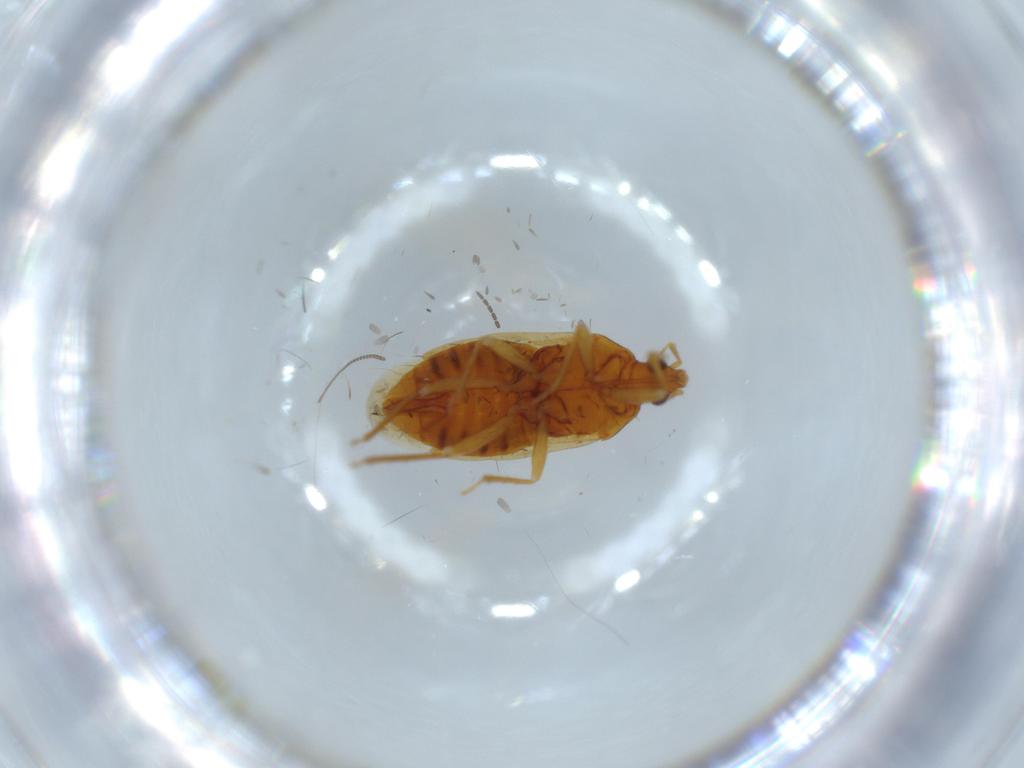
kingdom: Animalia
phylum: Arthropoda
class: Insecta
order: Hemiptera
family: Anthocoridae
